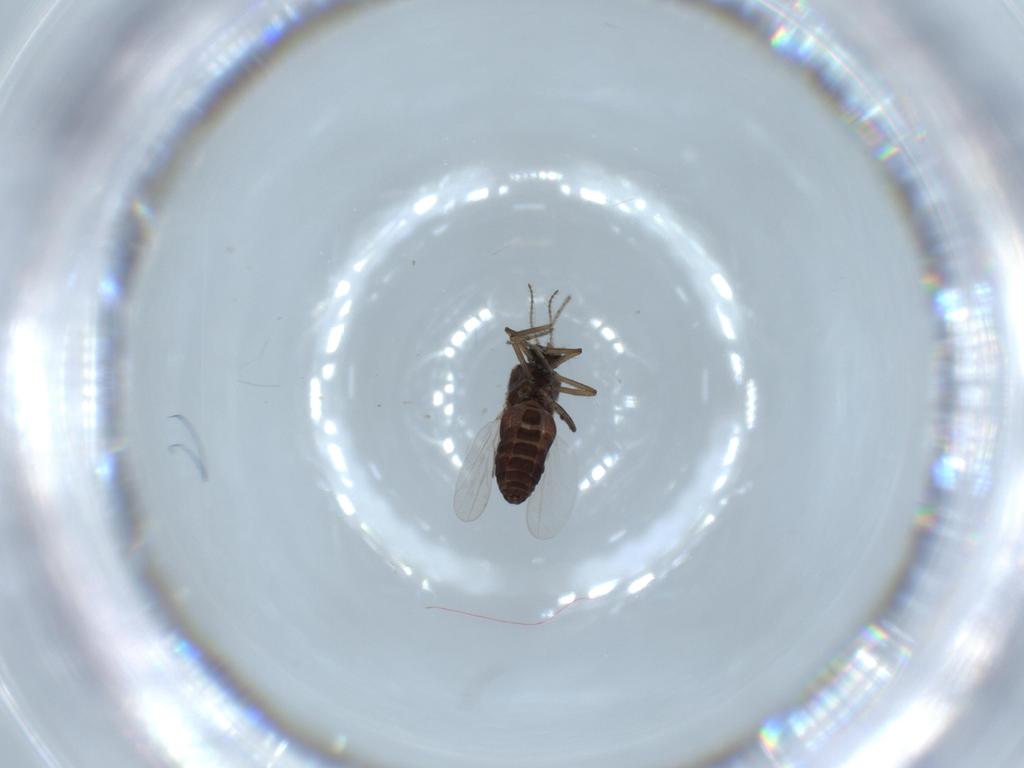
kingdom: Animalia
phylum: Arthropoda
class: Insecta
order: Diptera
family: Ceratopogonidae
